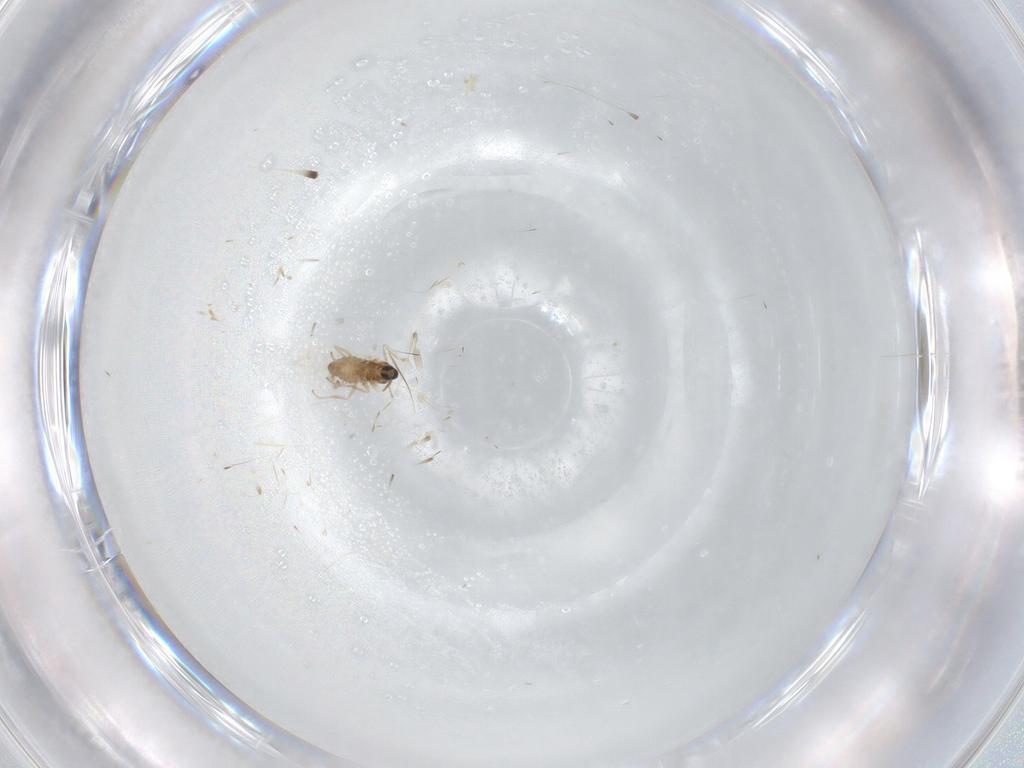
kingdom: Animalia
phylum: Arthropoda
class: Insecta
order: Diptera
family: Cecidomyiidae
